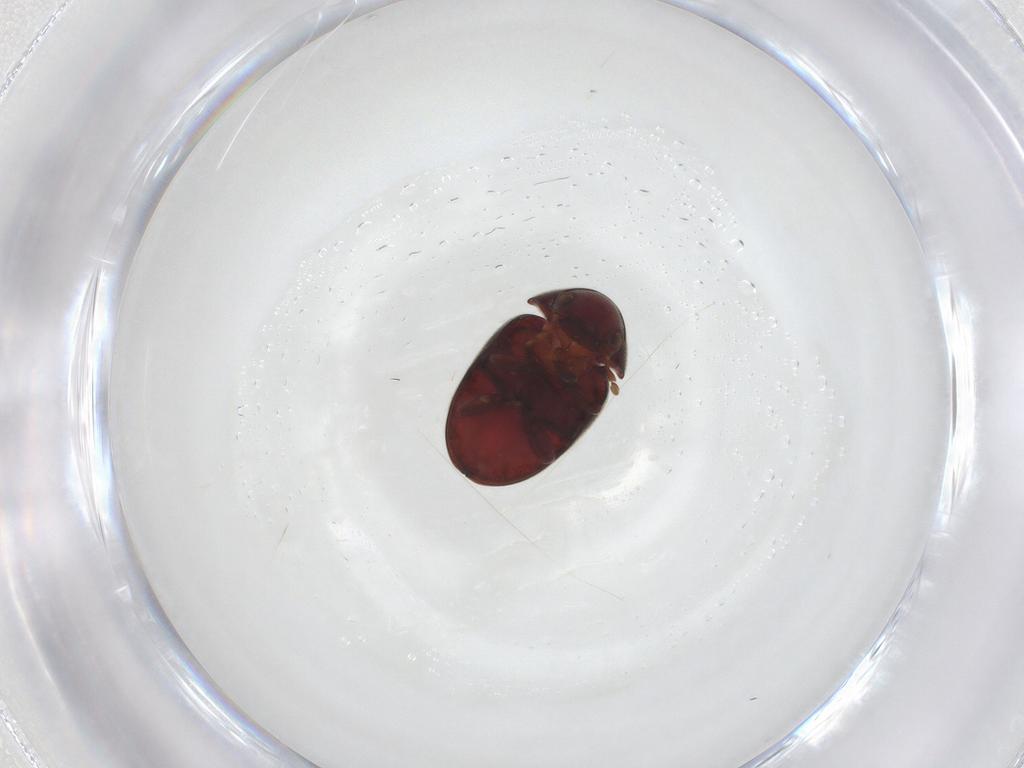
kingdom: Animalia
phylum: Arthropoda
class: Insecta
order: Coleoptera
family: Ptinidae
